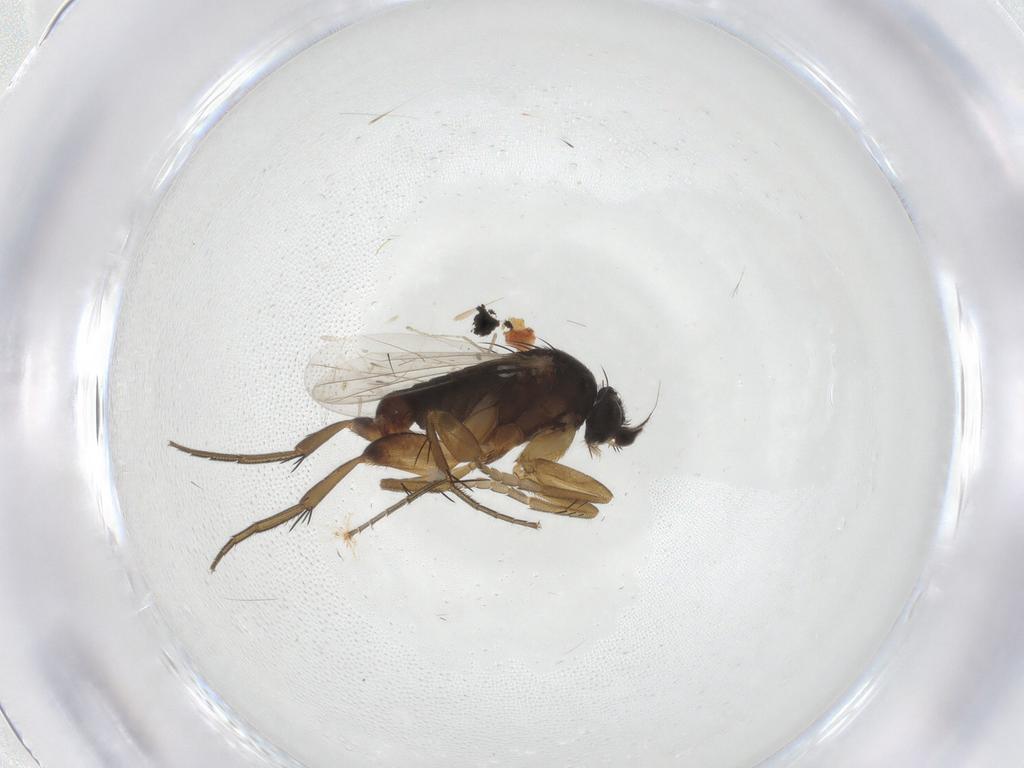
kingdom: Animalia
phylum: Arthropoda
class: Insecta
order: Diptera
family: Phoridae
